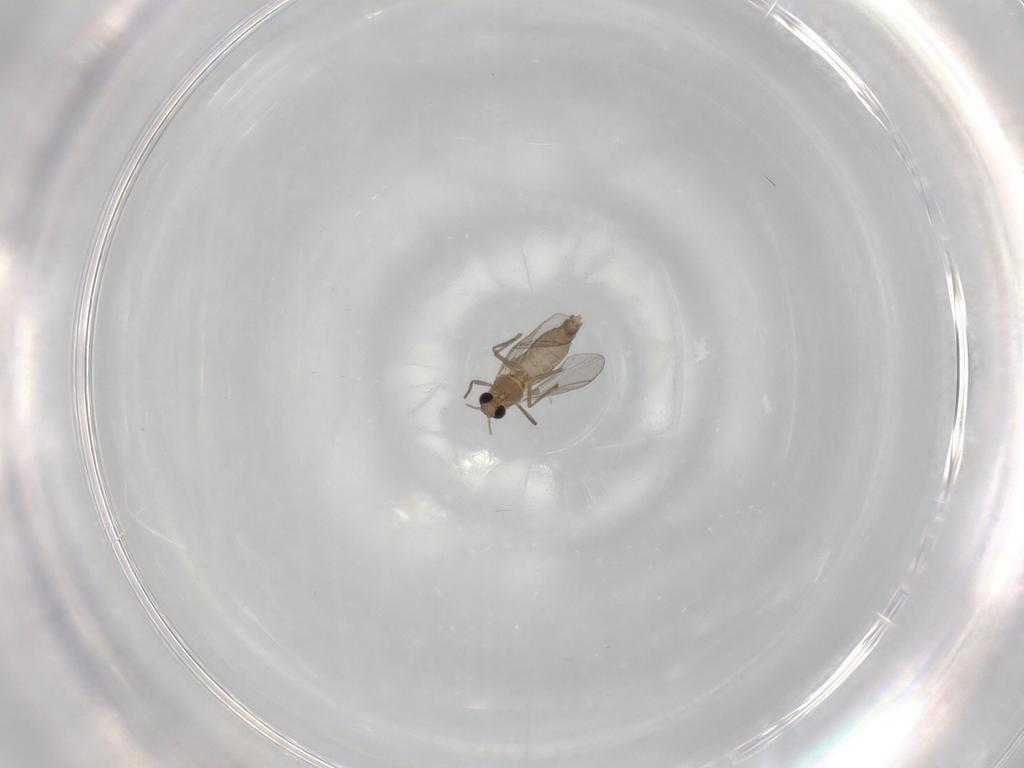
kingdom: Animalia
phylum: Arthropoda
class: Insecta
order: Diptera
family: Chironomidae
